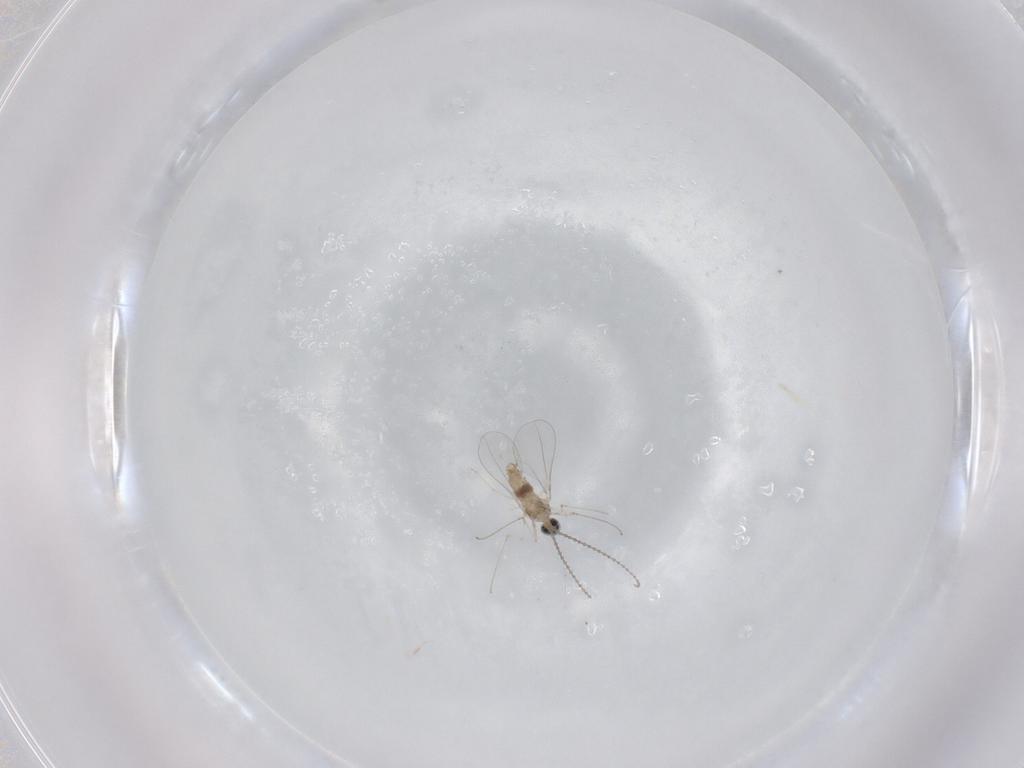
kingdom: Animalia
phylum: Arthropoda
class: Insecta
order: Diptera
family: Cecidomyiidae
